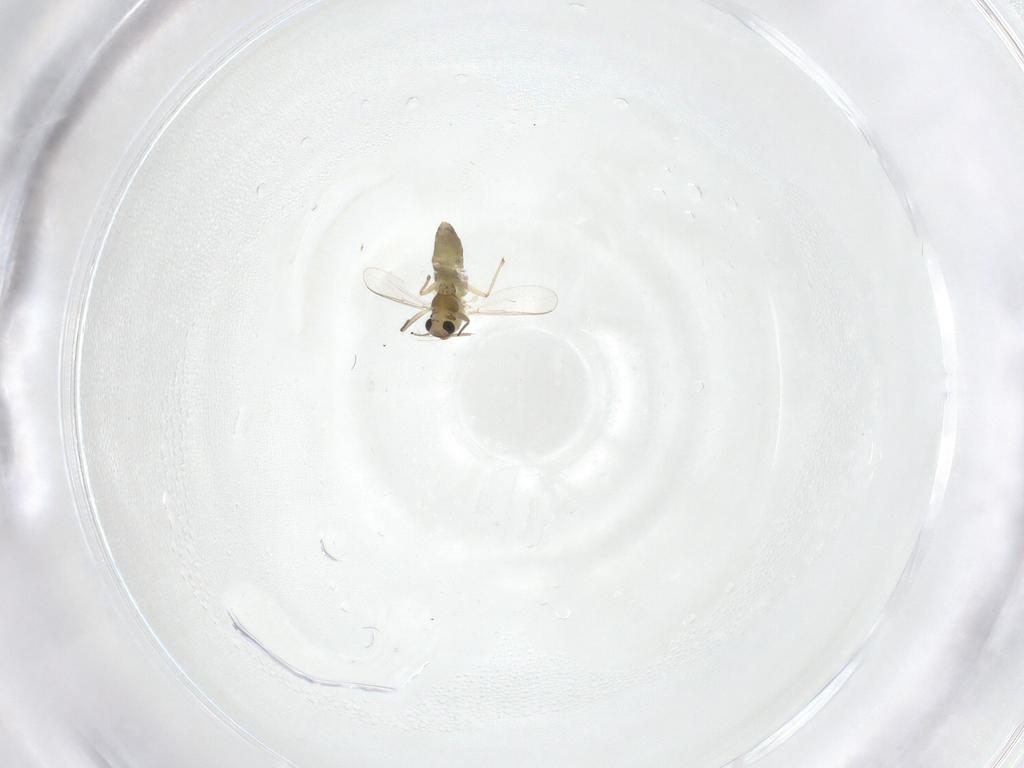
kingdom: Animalia
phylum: Arthropoda
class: Insecta
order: Diptera
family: Chironomidae
